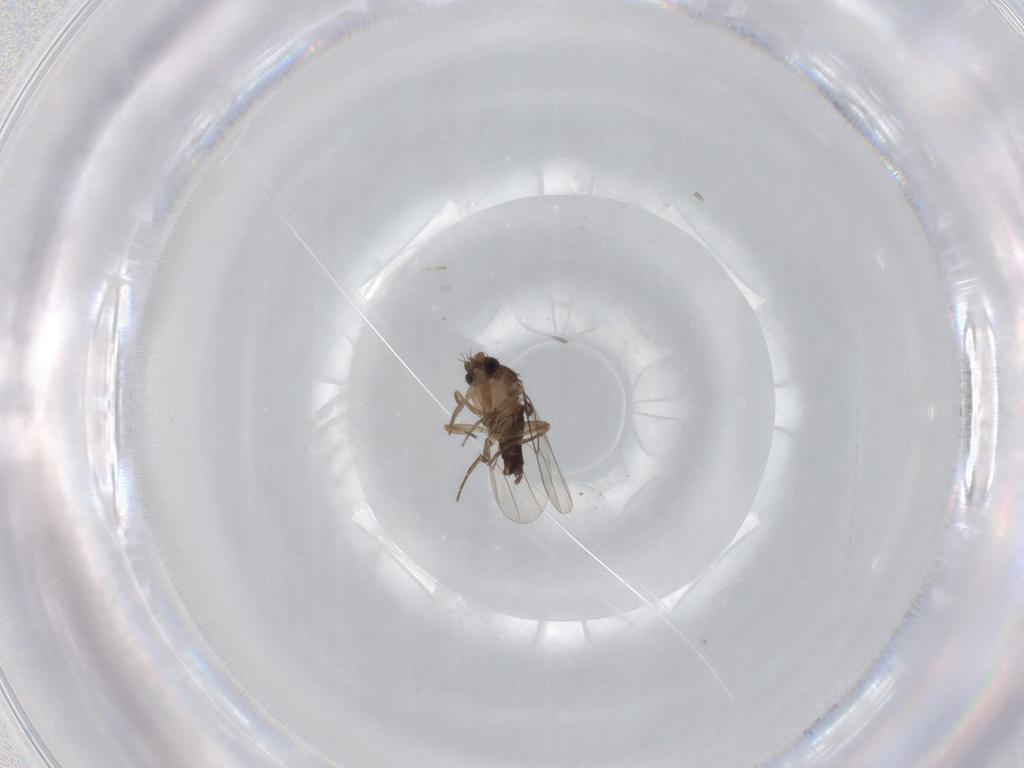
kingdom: Animalia
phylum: Arthropoda
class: Insecta
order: Diptera
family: Phoridae
